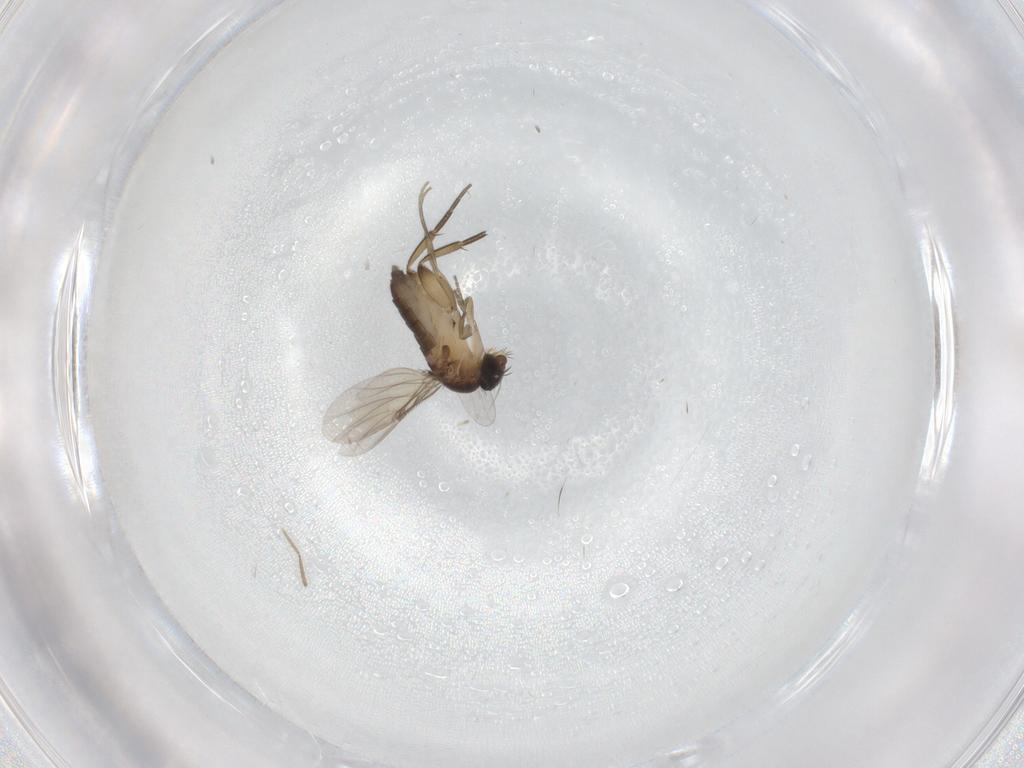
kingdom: Animalia
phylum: Arthropoda
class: Insecta
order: Diptera
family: Phoridae
